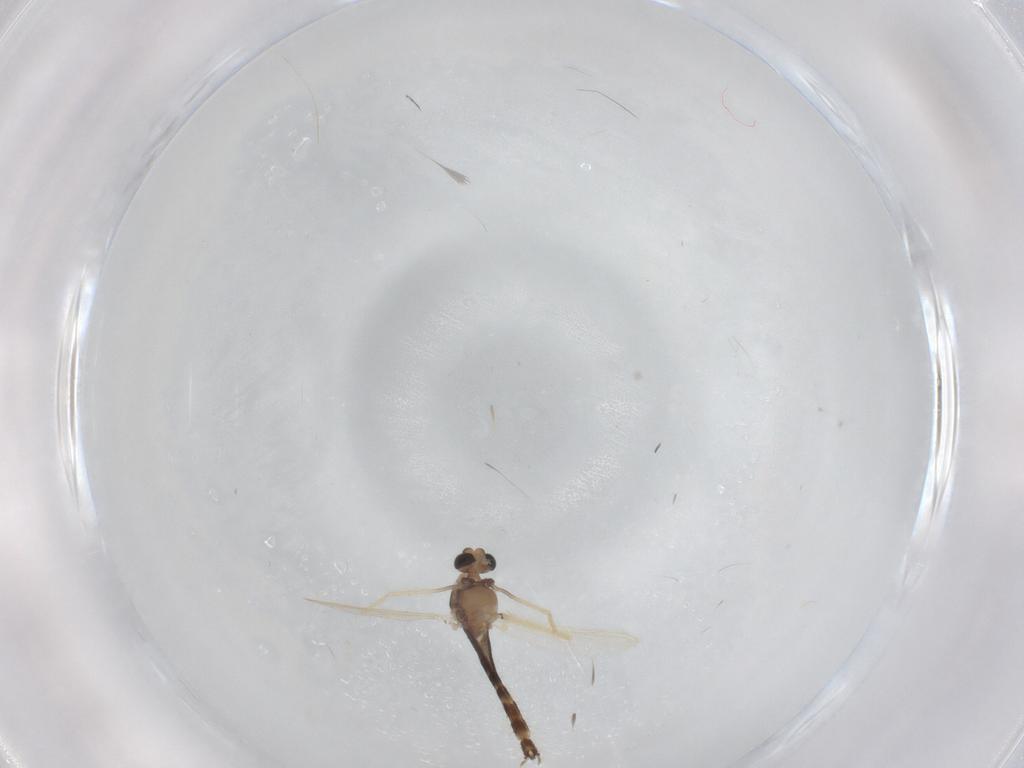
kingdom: Animalia
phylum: Arthropoda
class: Insecta
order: Diptera
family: Chironomidae
